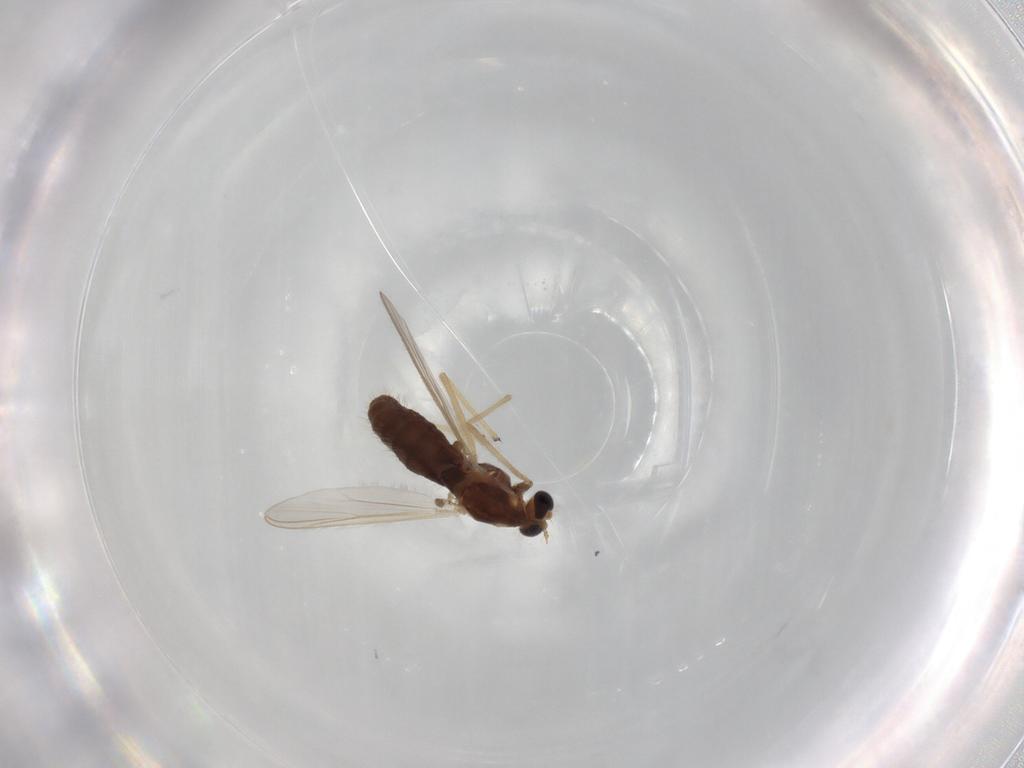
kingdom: Animalia
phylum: Arthropoda
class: Insecta
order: Diptera
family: Chironomidae
